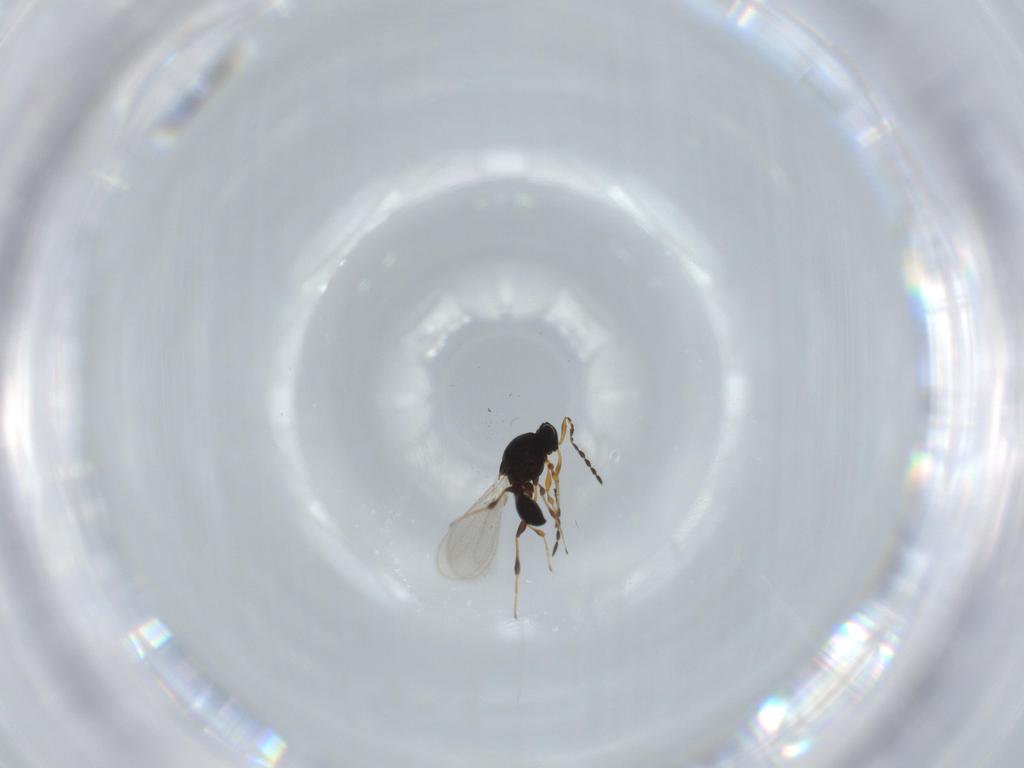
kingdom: Animalia
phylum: Arthropoda
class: Insecta
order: Hymenoptera
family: Platygastridae
